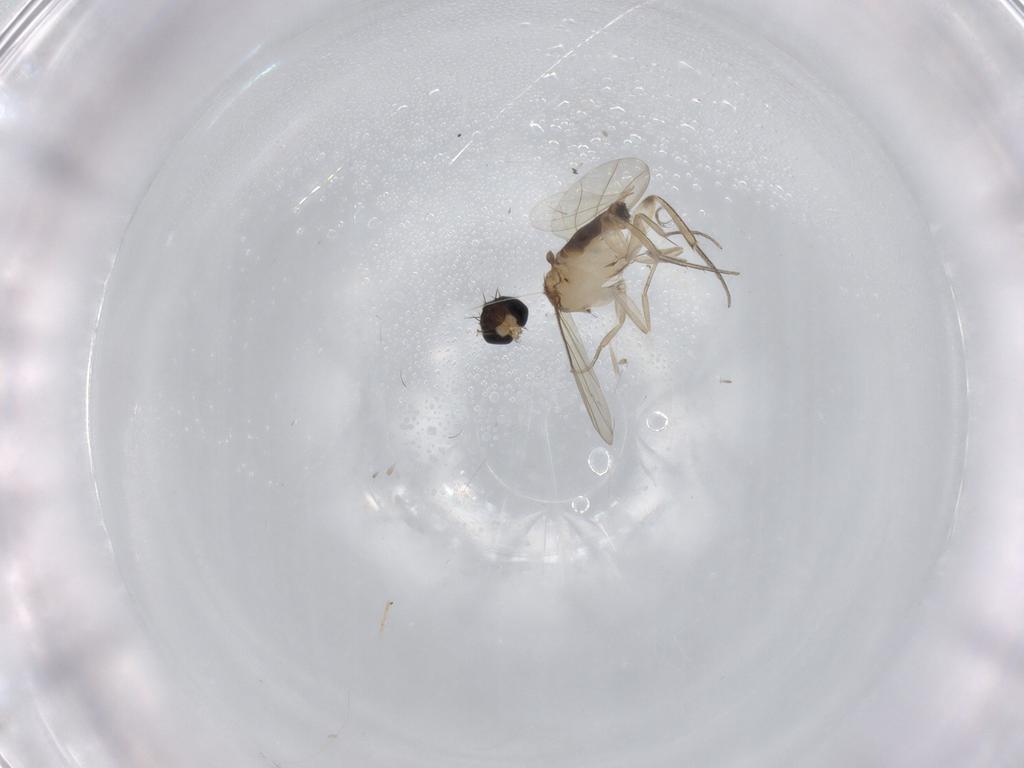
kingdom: Animalia
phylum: Arthropoda
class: Insecta
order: Diptera
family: Phoridae
